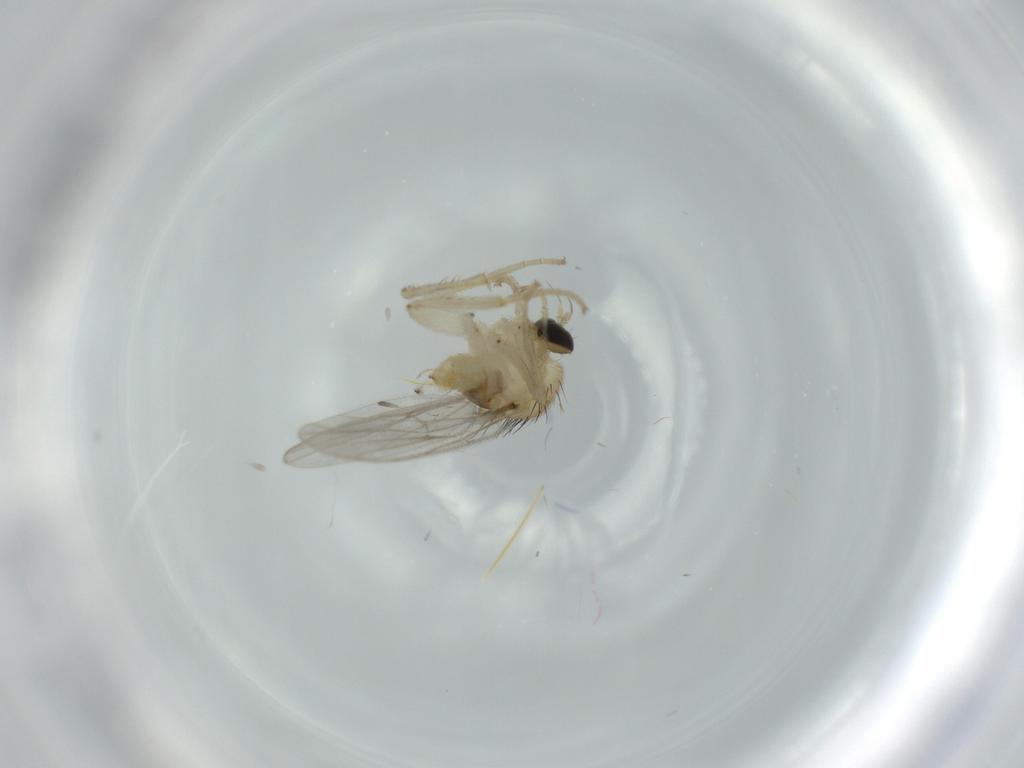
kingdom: Animalia
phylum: Arthropoda
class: Insecta
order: Diptera
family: Hybotidae
